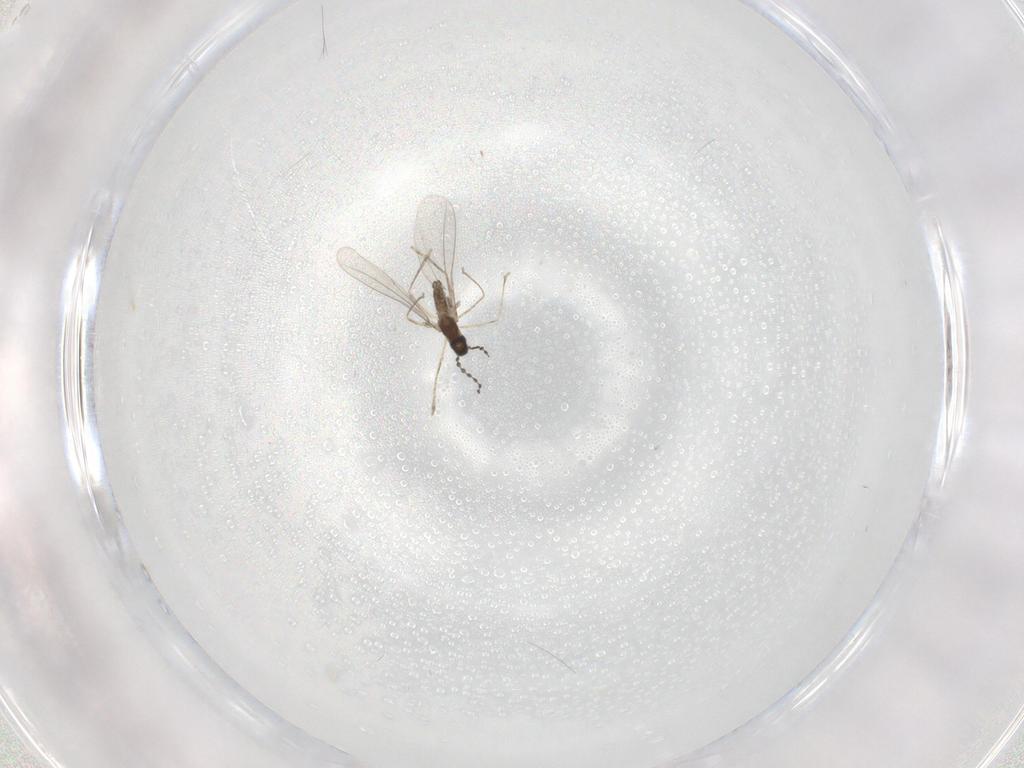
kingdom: Animalia
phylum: Arthropoda
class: Insecta
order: Diptera
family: Cecidomyiidae
